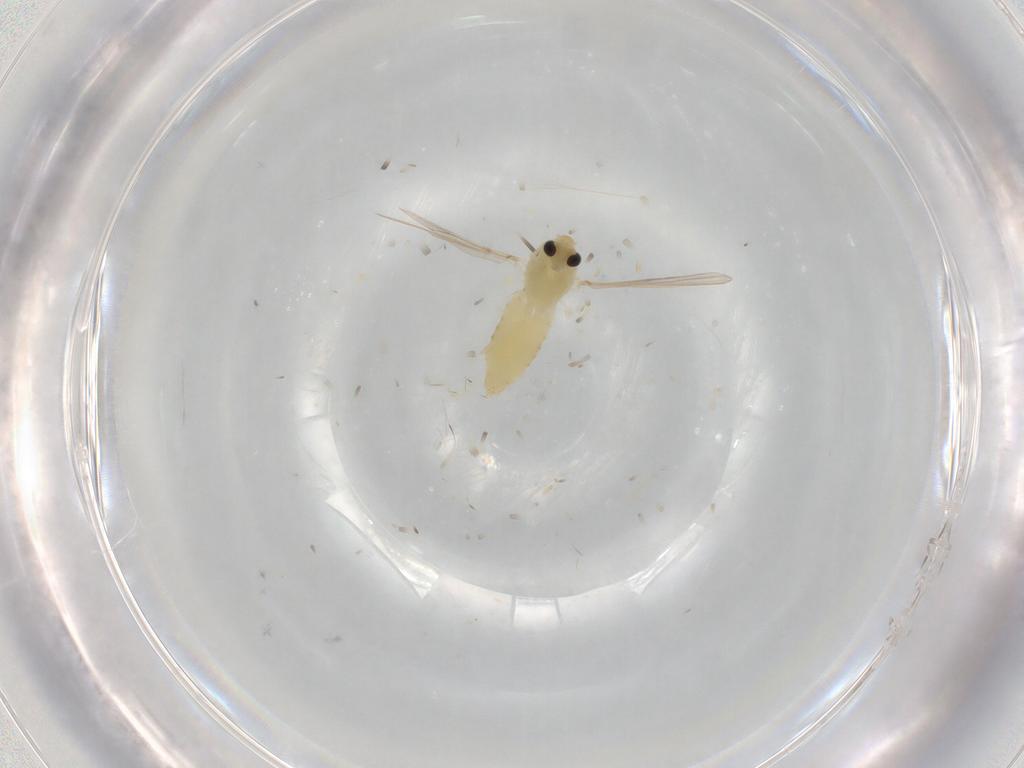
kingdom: Animalia
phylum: Arthropoda
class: Insecta
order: Diptera
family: Chironomidae
